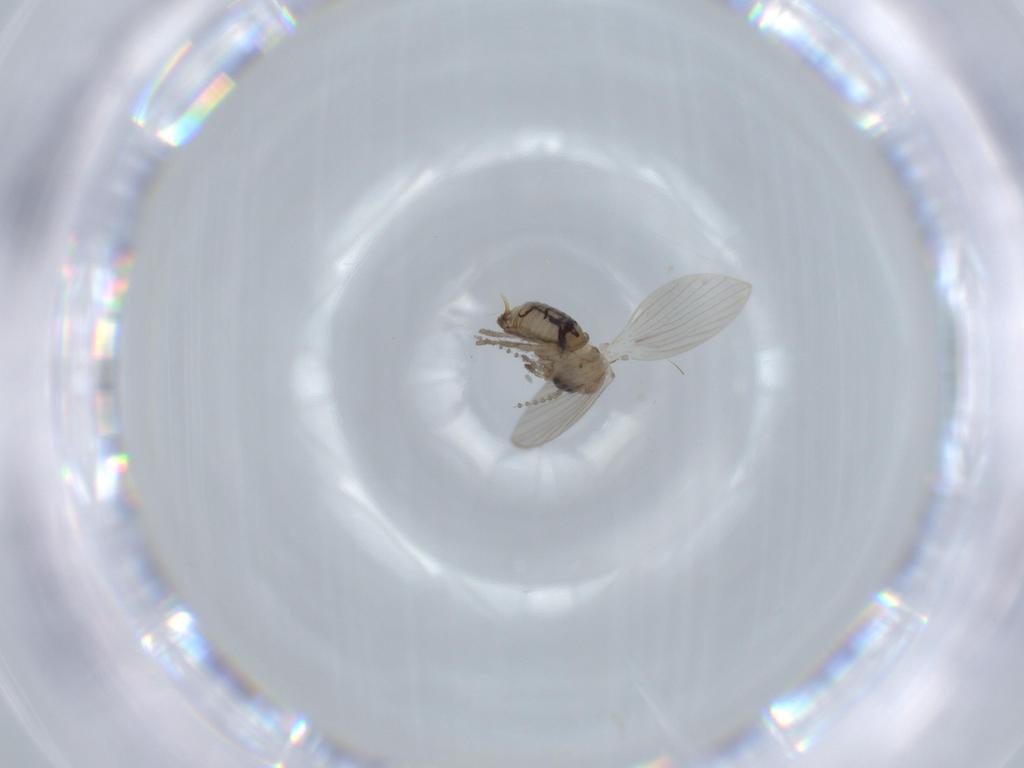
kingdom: Animalia
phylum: Arthropoda
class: Insecta
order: Diptera
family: Psychodidae
